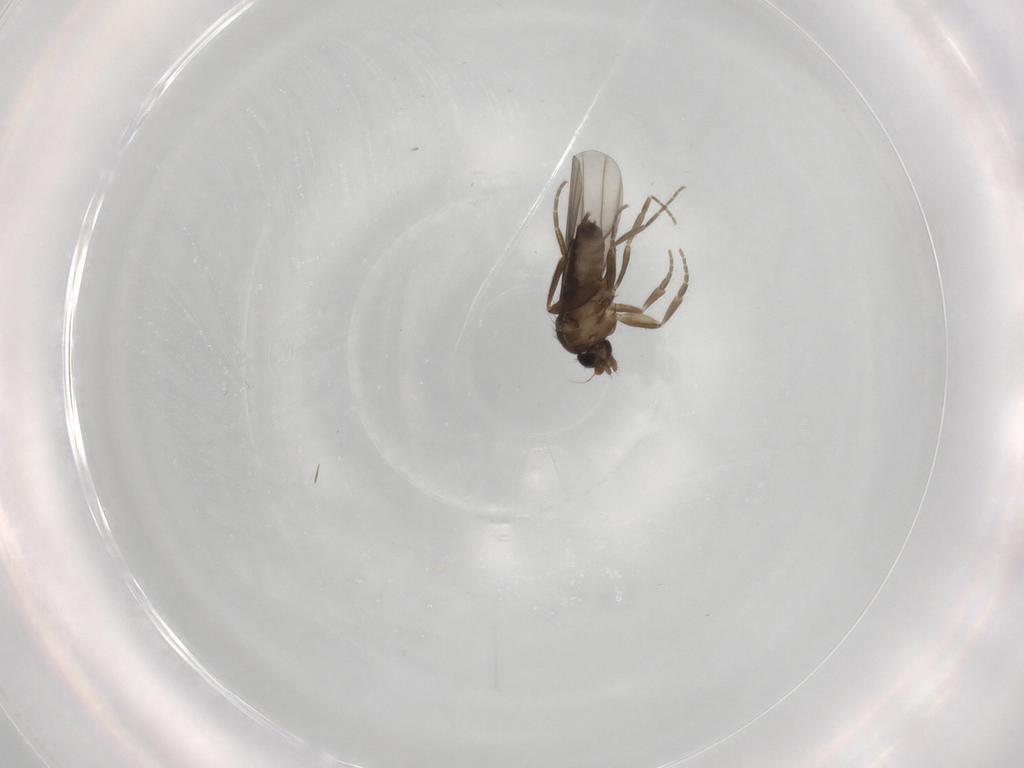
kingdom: Animalia
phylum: Arthropoda
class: Insecta
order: Diptera
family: Phoridae
